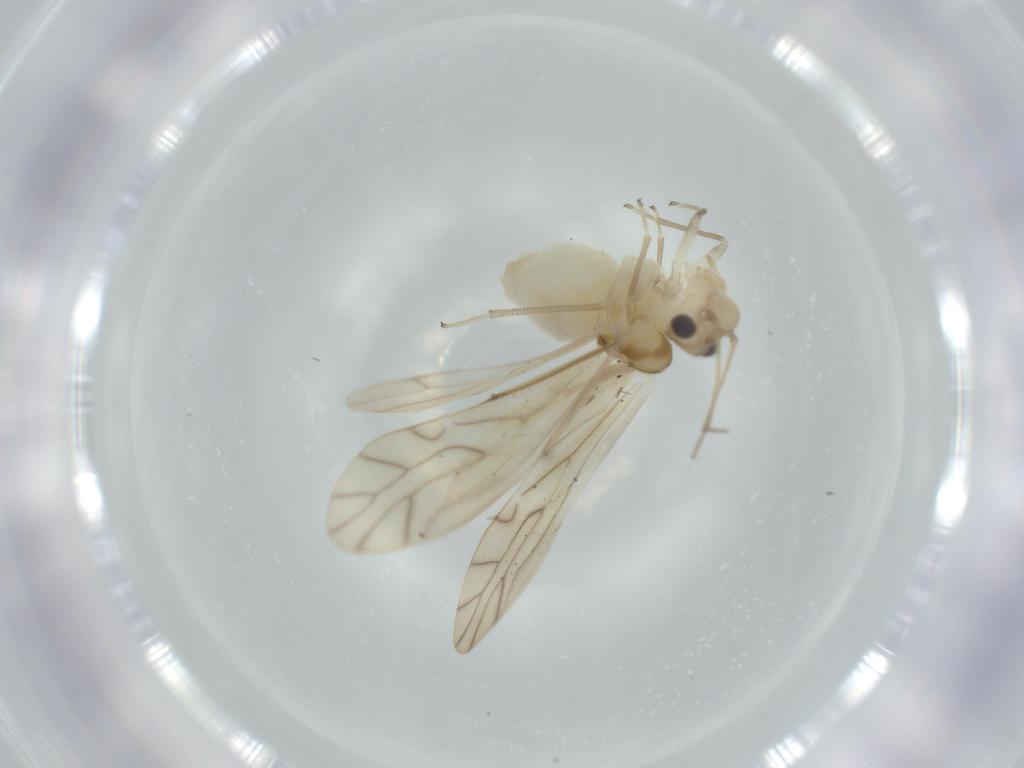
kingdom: Animalia
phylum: Arthropoda
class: Insecta
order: Psocodea
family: Caeciliusidae
